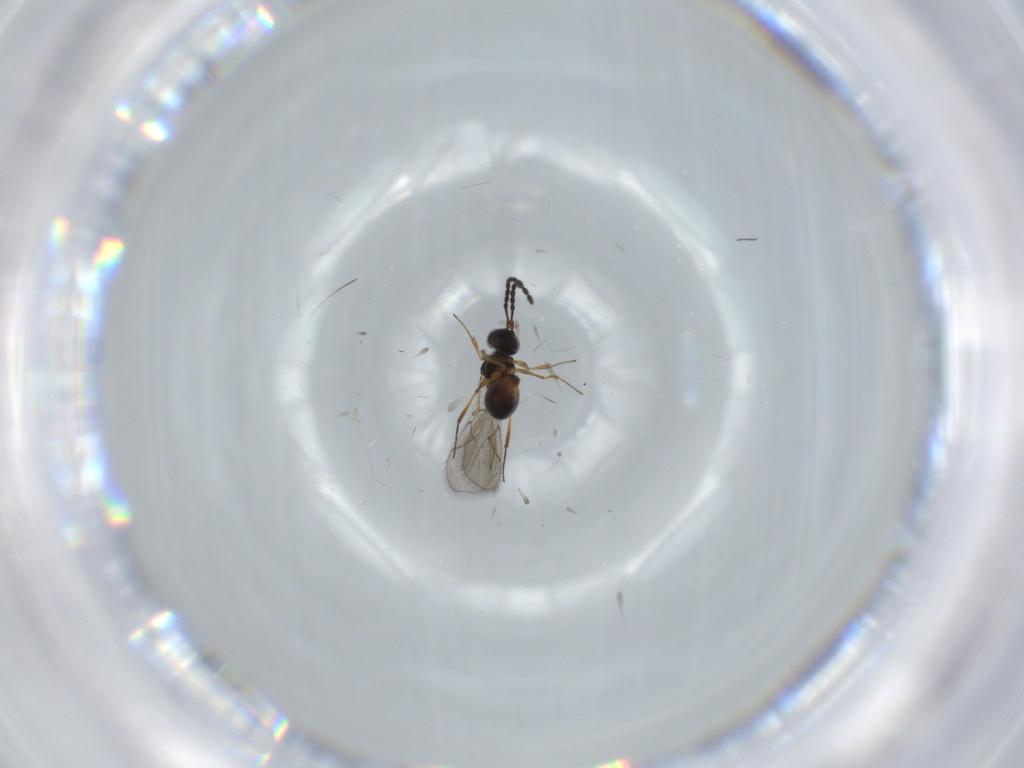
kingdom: Animalia
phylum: Arthropoda
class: Insecta
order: Hymenoptera
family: Figitidae
